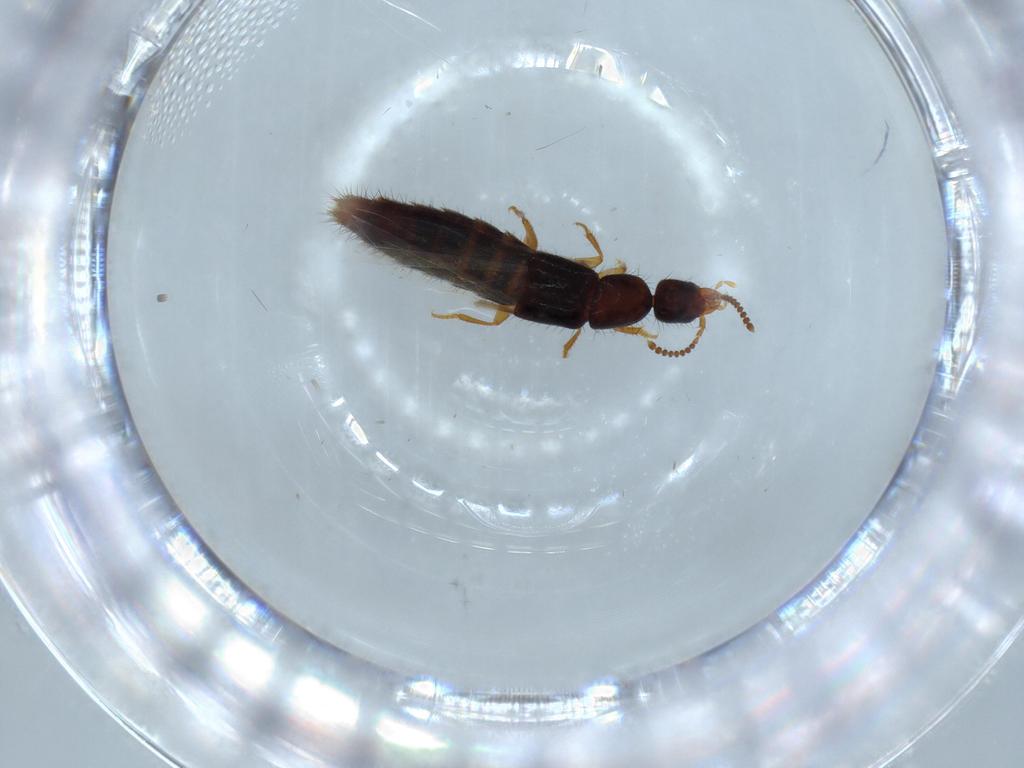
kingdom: Animalia
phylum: Arthropoda
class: Insecta
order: Coleoptera
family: Staphylinidae
